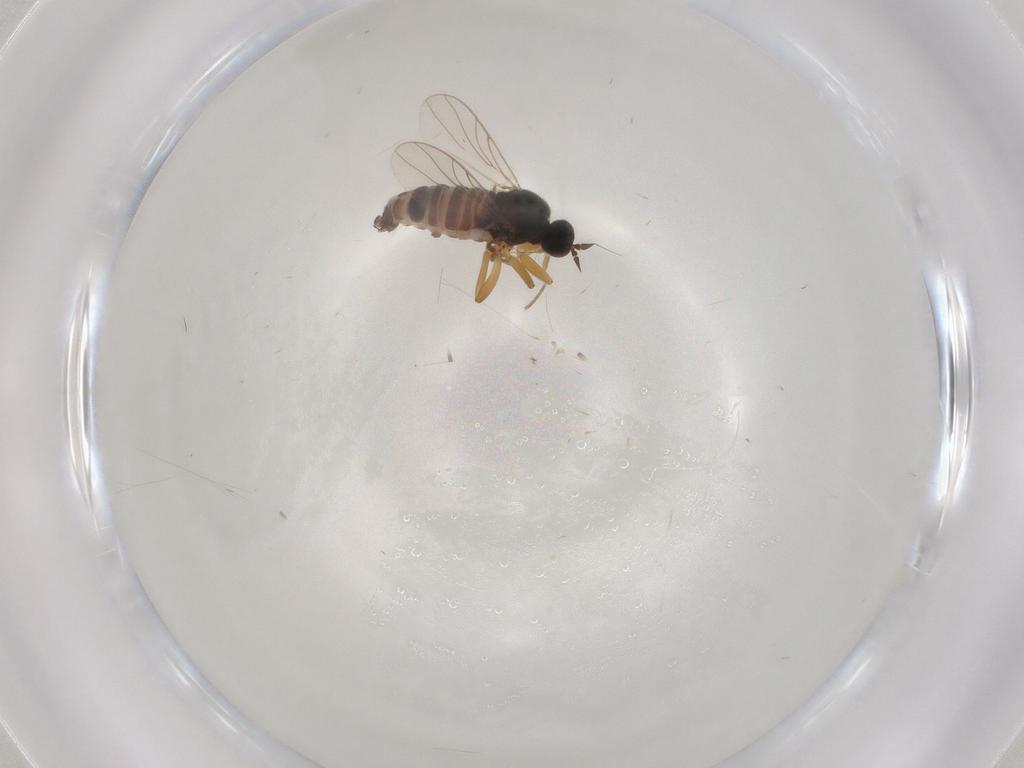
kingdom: Animalia
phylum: Arthropoda
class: Insecta
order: Diptera
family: Hybotidae
